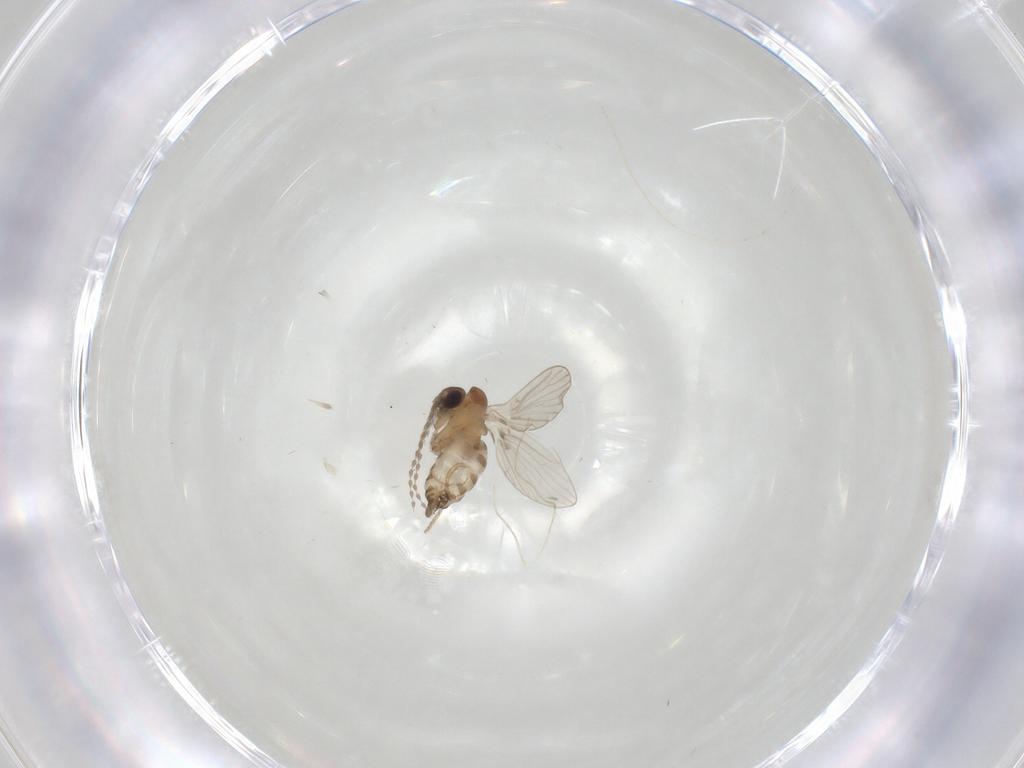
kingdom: Animalia
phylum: Arthropoda
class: Insecta
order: Diptera
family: Psychodidae
